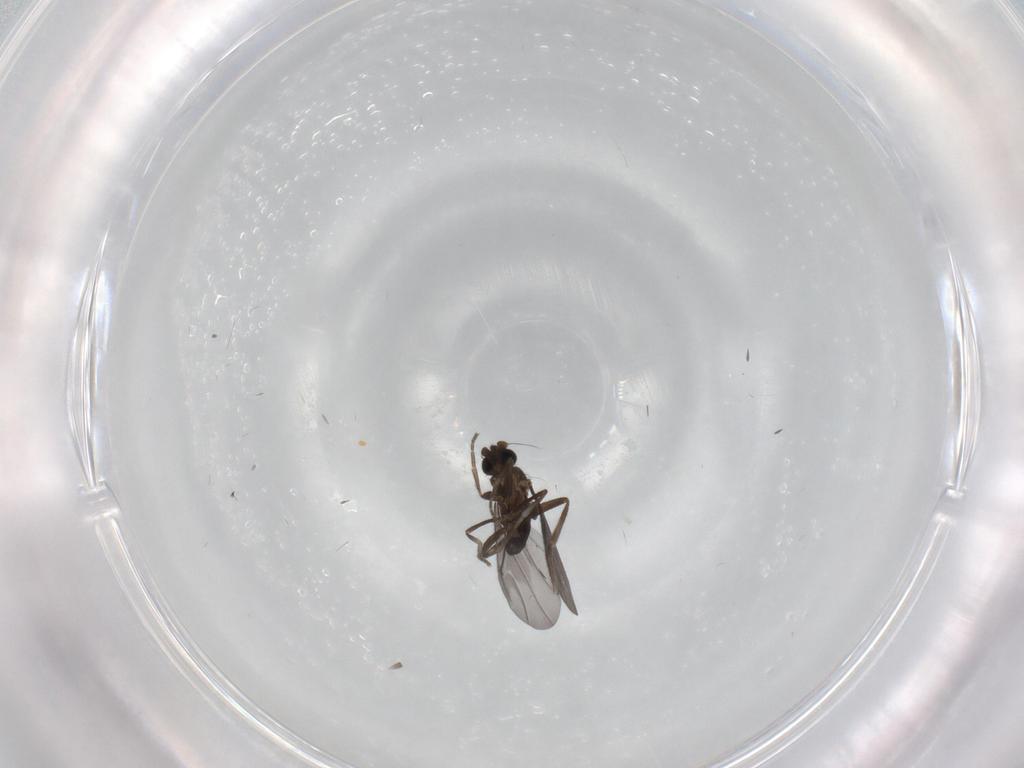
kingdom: Animalia
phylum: Arthropoda
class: Insecta
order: Diptera
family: Phoridae
